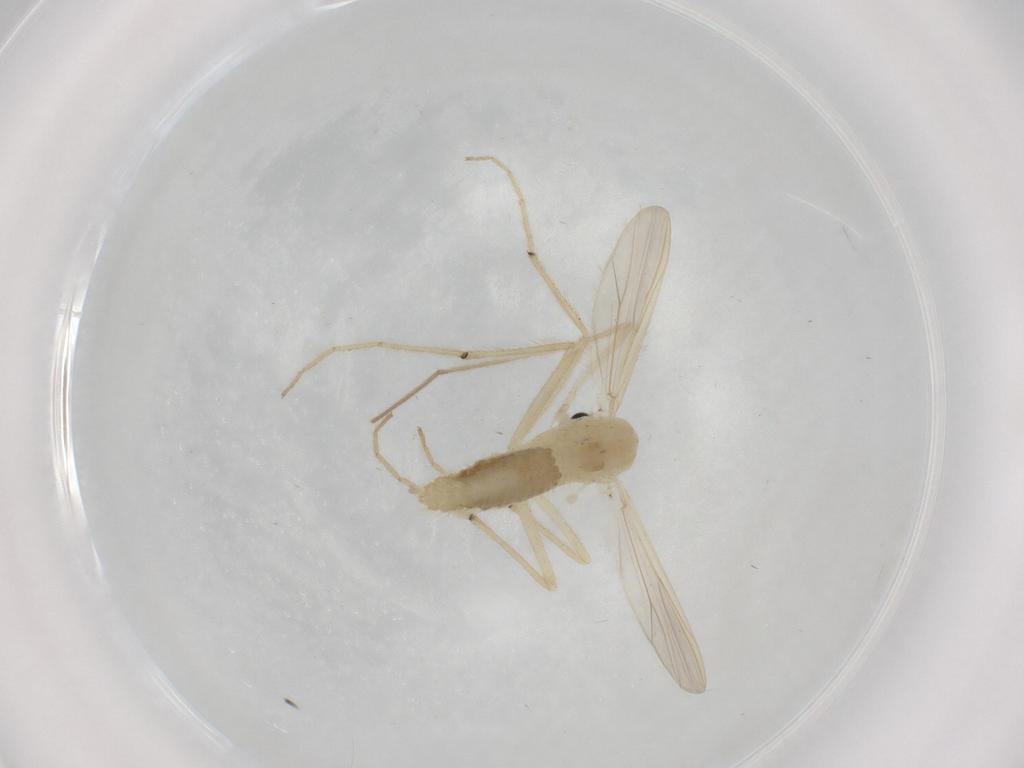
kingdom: Animalia
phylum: Arthropoda
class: Insecta
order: Diptera
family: Chironomidae
